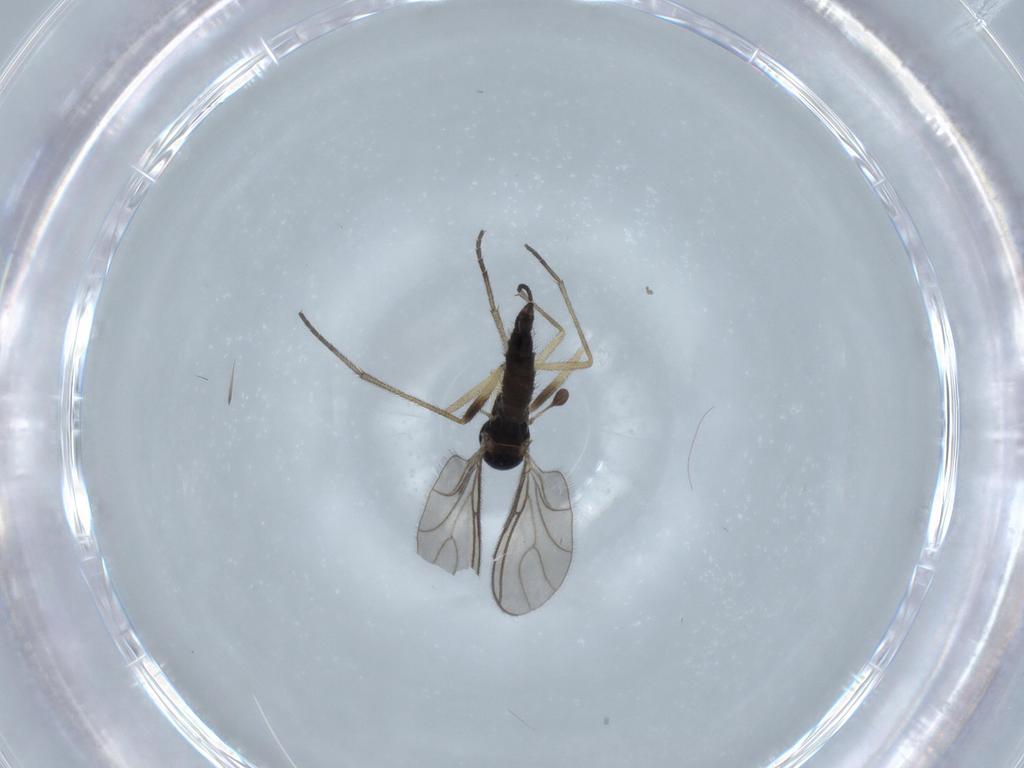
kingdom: Animalia
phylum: Arthropoda
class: Insecta
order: Diptera
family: Sciaridae
